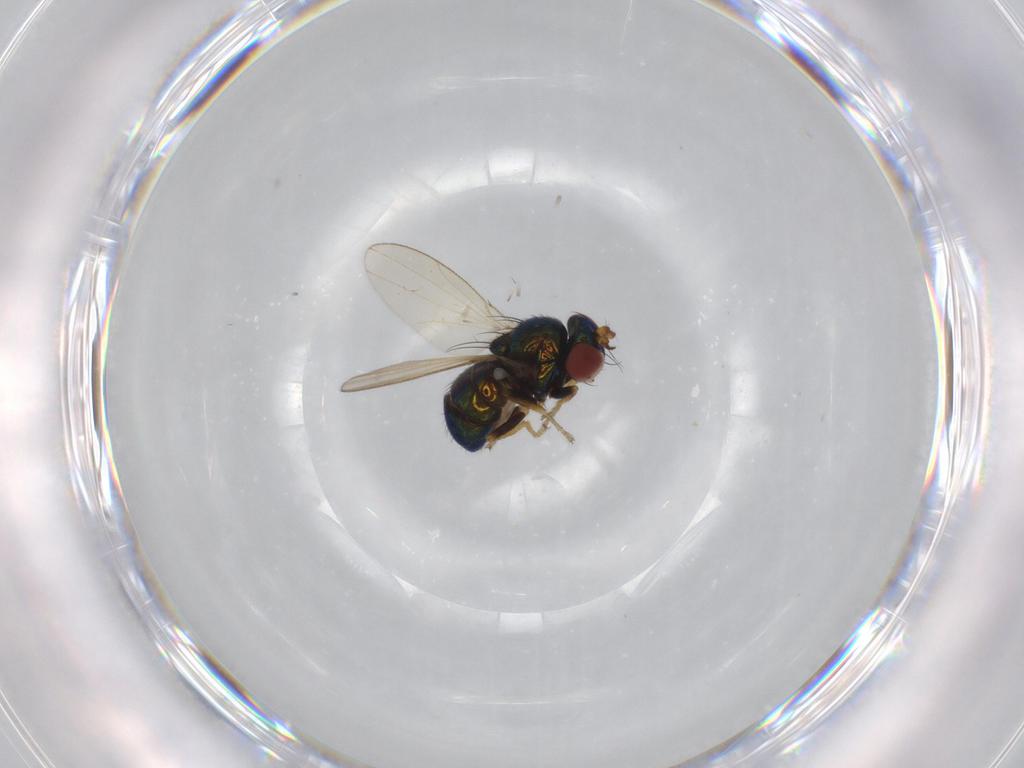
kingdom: Animalia
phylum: Arthropoda
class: Insecta
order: Diptera
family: Ephydridae
